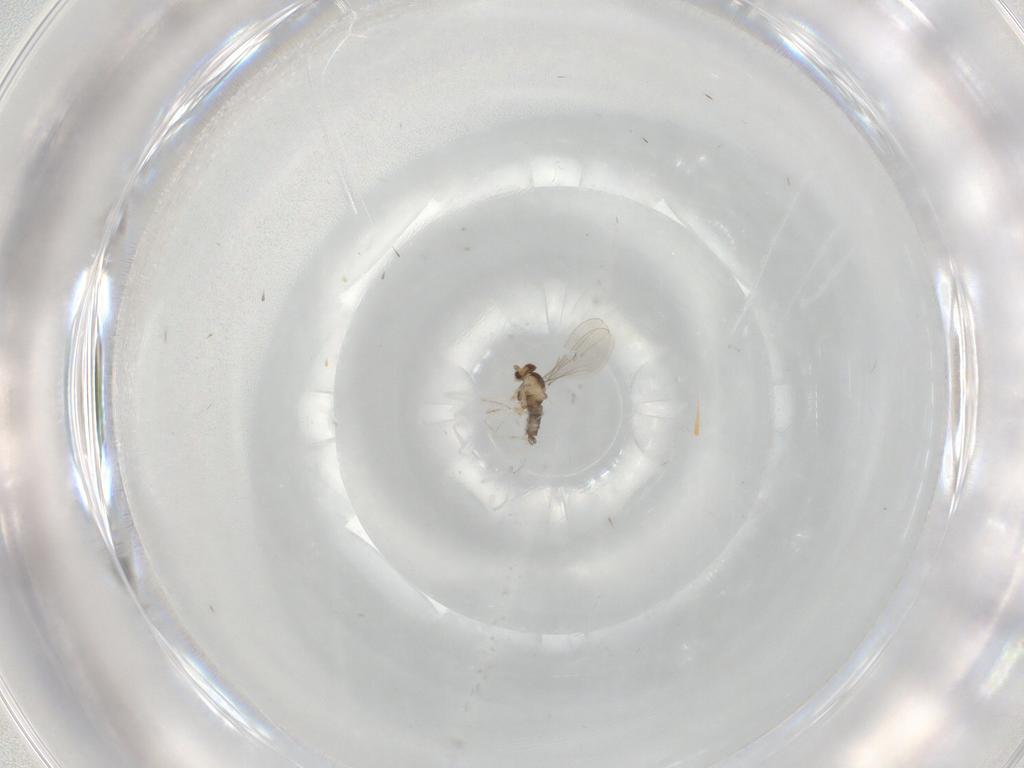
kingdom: Animalia
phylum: Arthropoda
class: Insecta
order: Diptera
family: Cecidomyiidae
